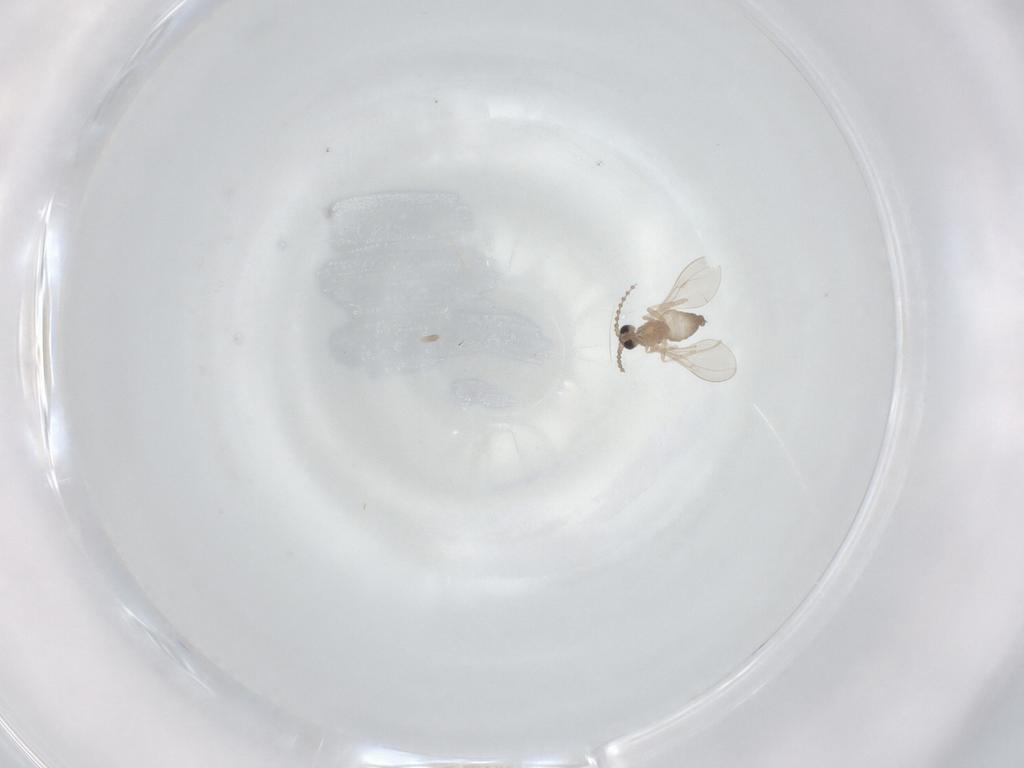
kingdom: Animalia
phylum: Arthropoda
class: Insecta
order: Diptera
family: Cecidomyiidae
